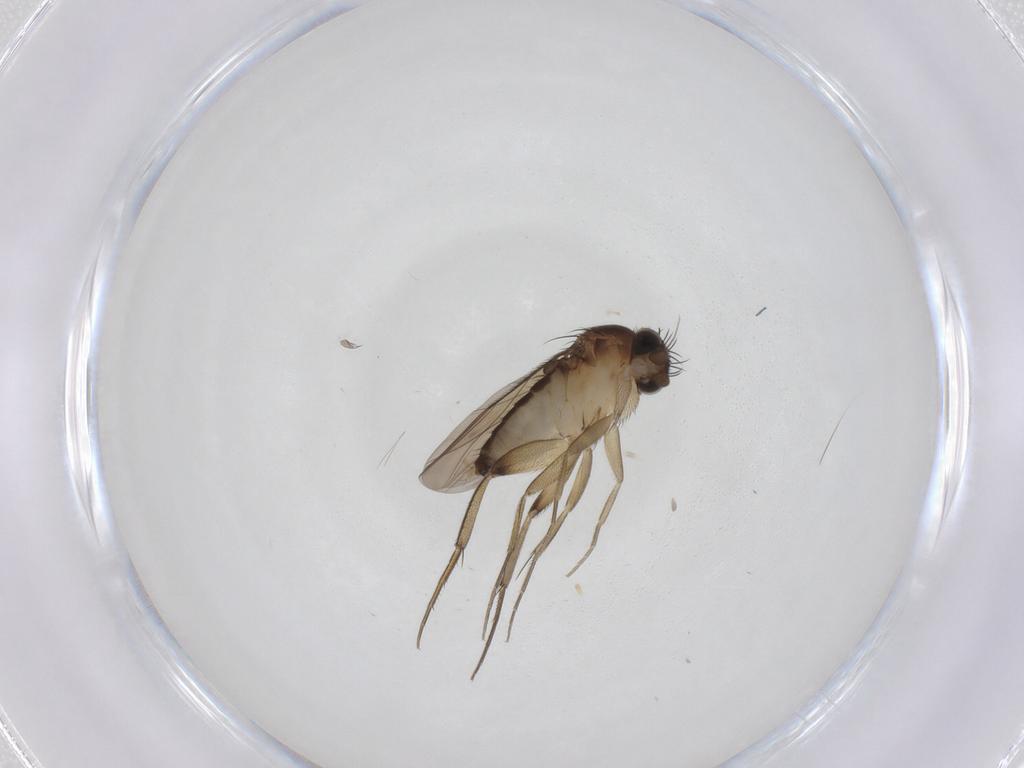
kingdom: Animalia
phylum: Arthropoda
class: Insecta
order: Diptera
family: Phoridae
